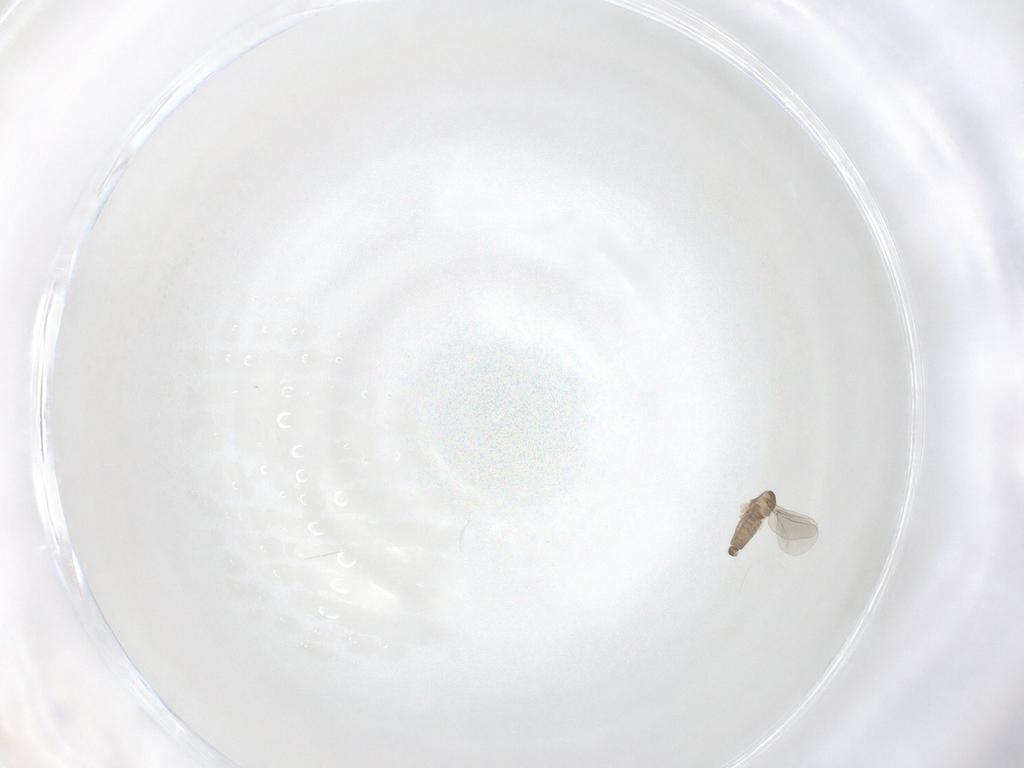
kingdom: Animalia
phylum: Arthropoda
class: Insecta
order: Diptera
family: Cecidomyiidae
